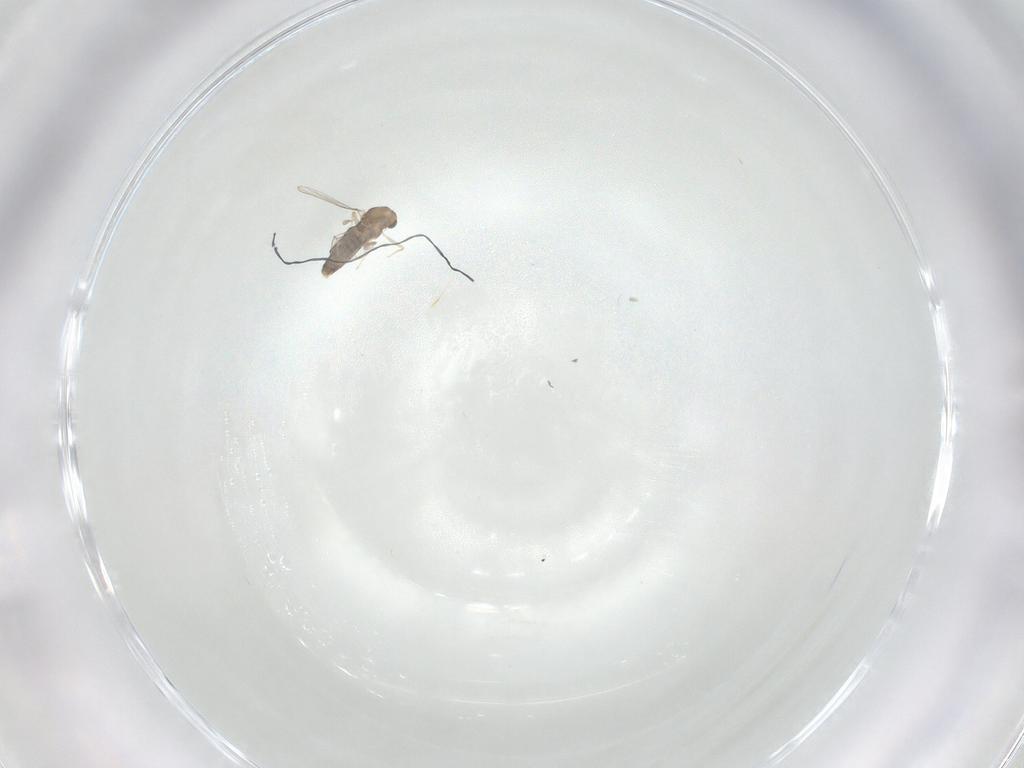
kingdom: Animalia
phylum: Arthropoda
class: Insecta
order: Diptera
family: Chironomidae
